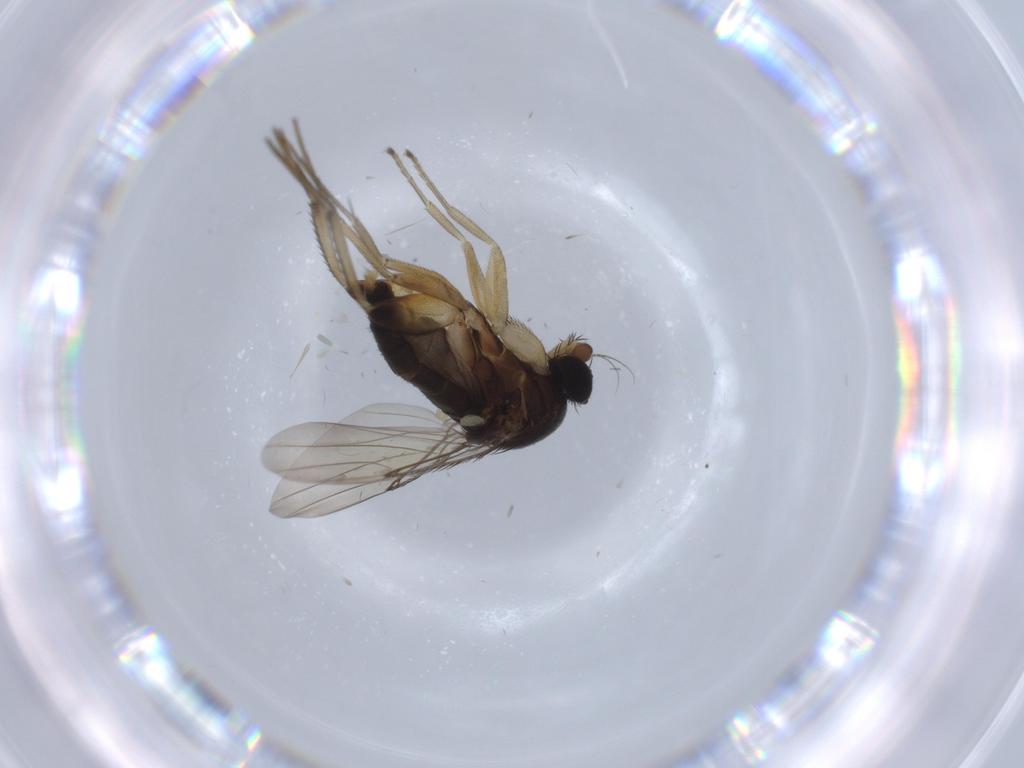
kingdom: Animalia
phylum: Arthropoda
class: Insecta
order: Diptera
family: Phoridae
